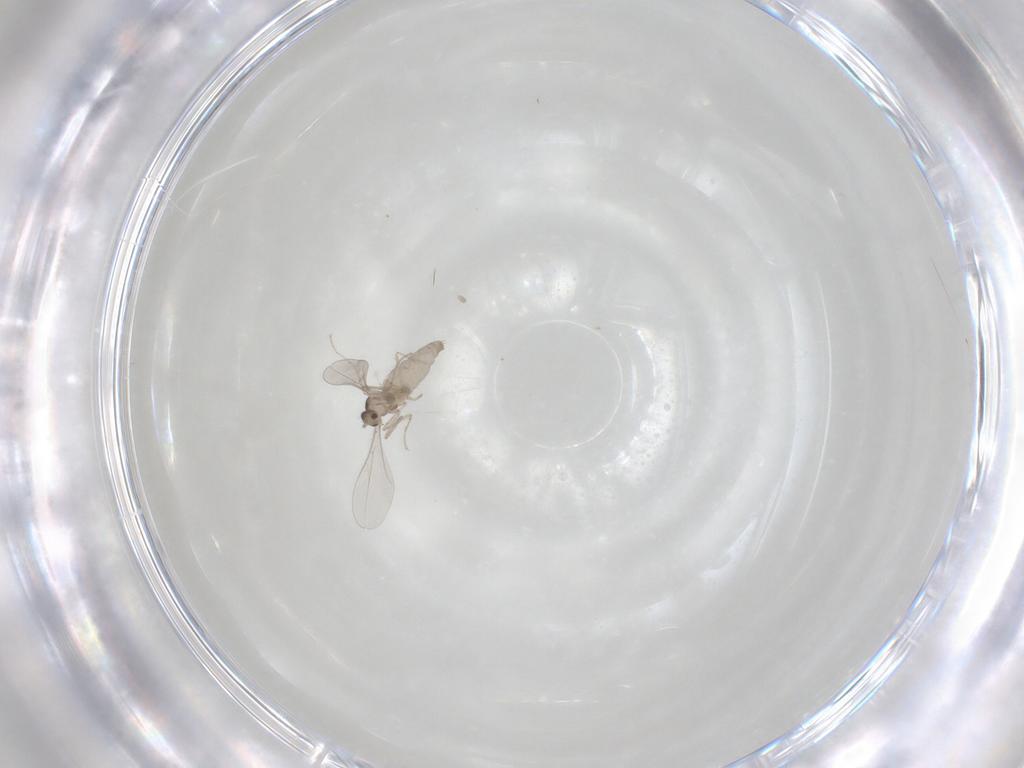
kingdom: Animalia
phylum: Arthropoda
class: Insecta
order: Diptera
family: Cecidomyiidae
